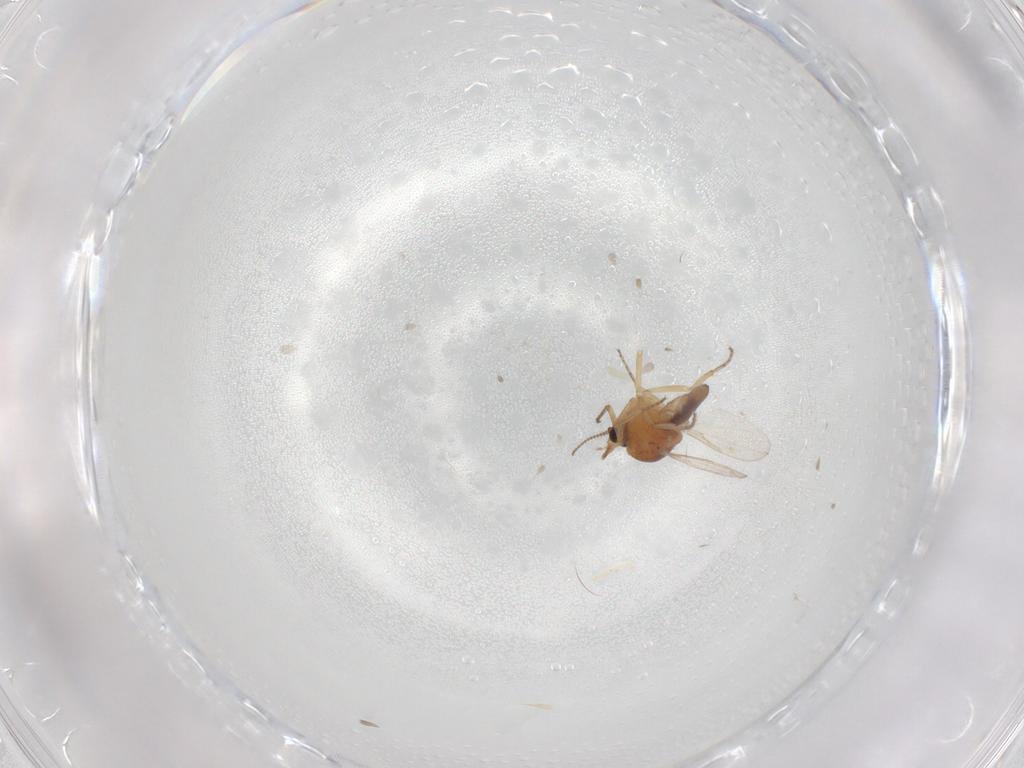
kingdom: Animalia
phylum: Arthropoda
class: Insecta
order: Diptera
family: Ceratopogonidae
